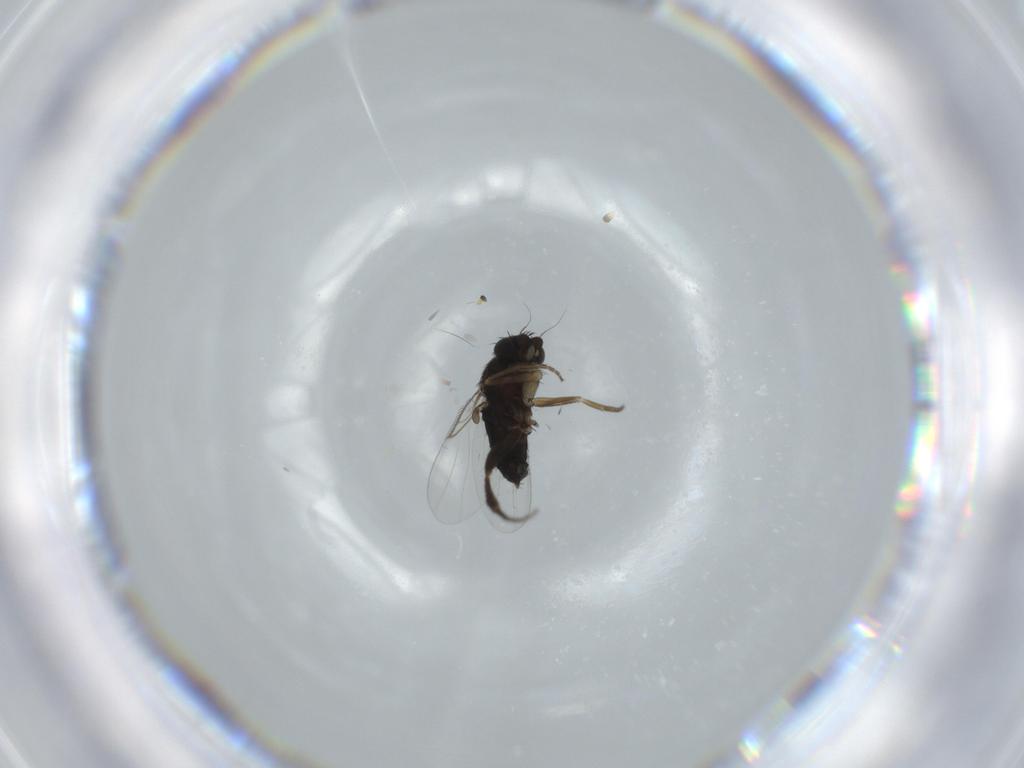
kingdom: Animalia
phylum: Arthropoda
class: Insecta
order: Diptera
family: Phoridae
